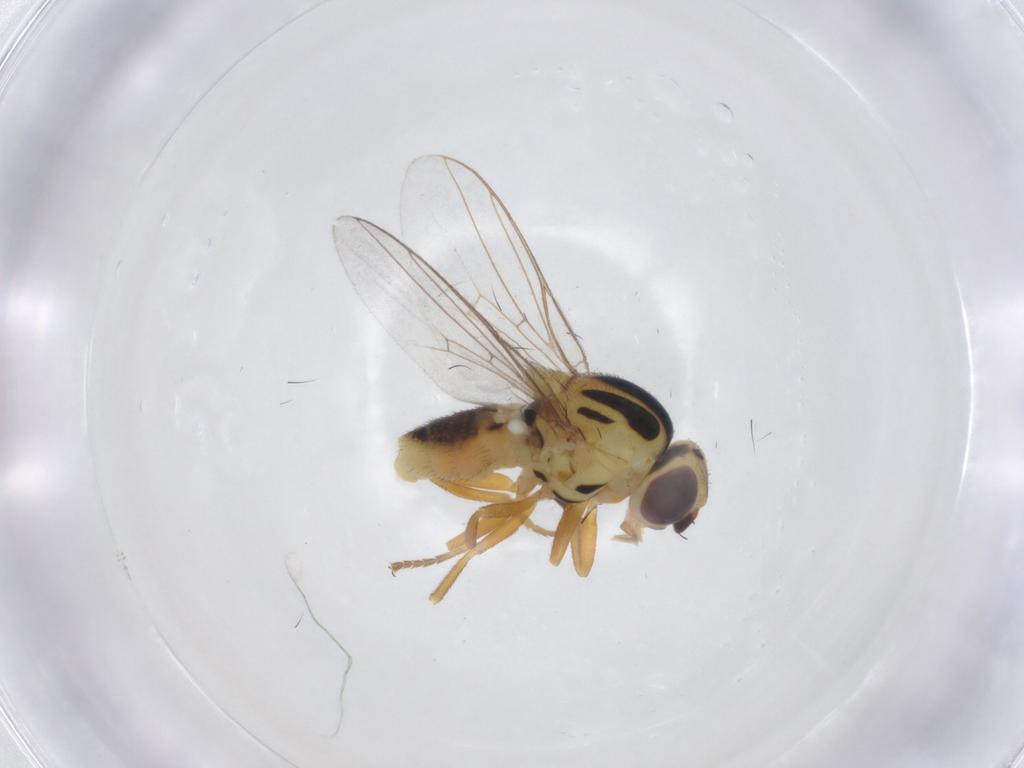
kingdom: Animalia
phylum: Arthropoda
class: Insecta
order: Diptera
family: Chloropidae
